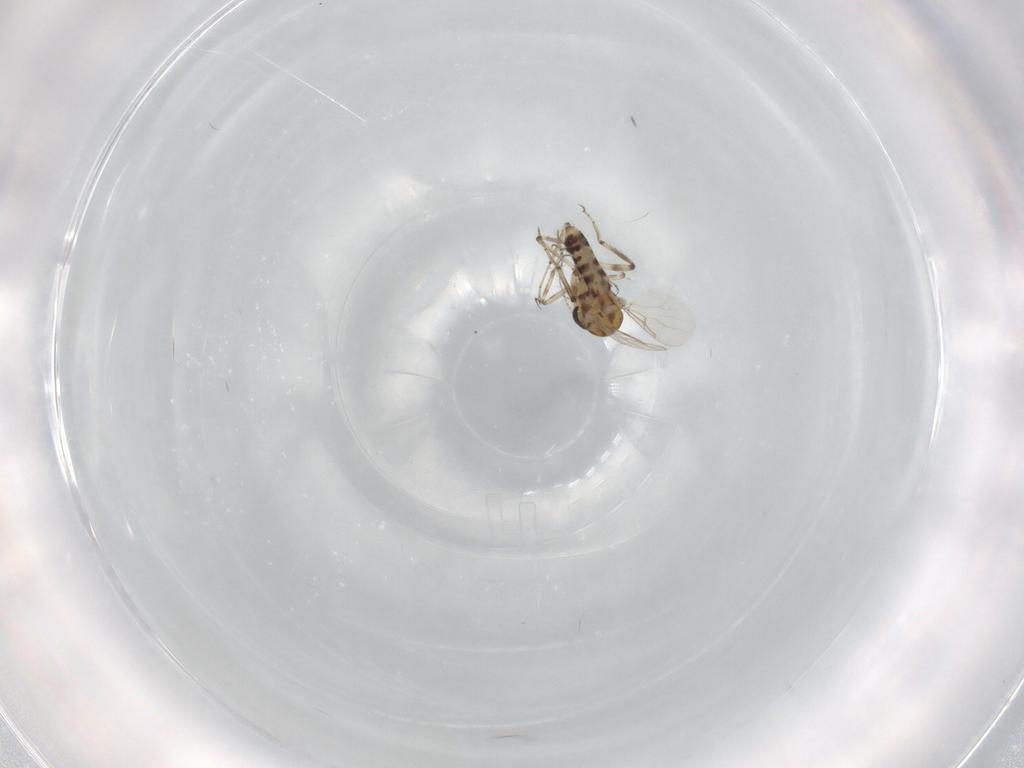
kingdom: Animalia
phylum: Arthropoda
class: Insecta
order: Diptera
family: Cecidomyiidae
